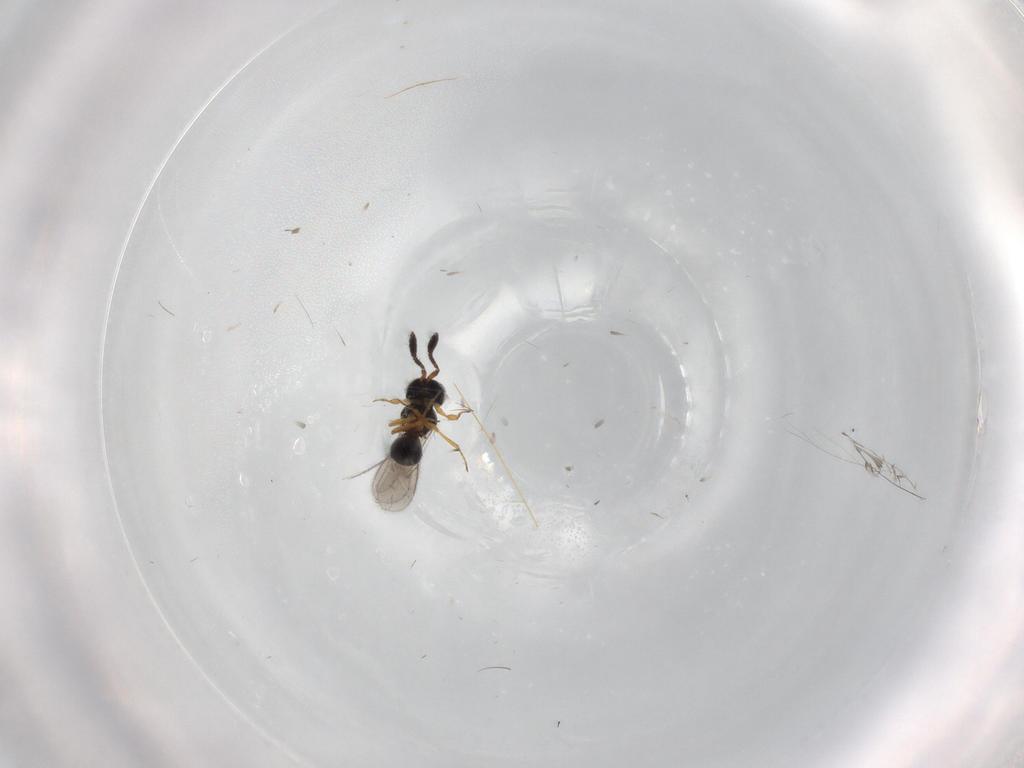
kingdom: Animalia
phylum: Arthropoda
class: Insecta
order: Hymenoptera
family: Scelionidae
